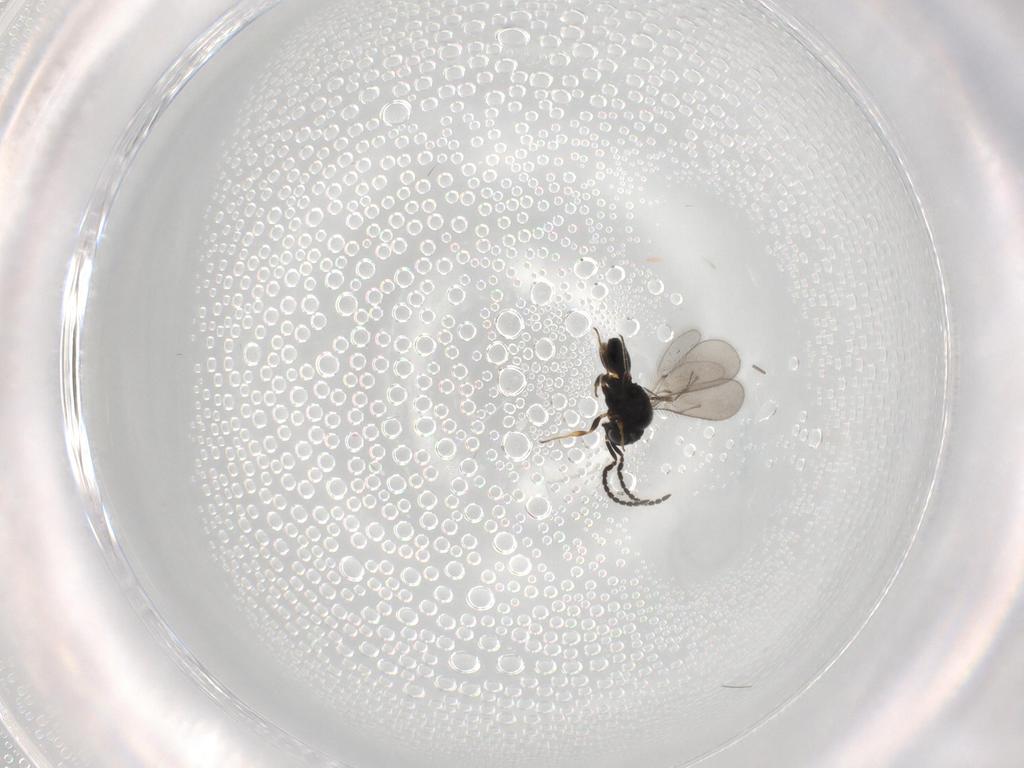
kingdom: Animalia
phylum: Arthropoda
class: Insecta
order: Hymenoptera
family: Scelionidae
